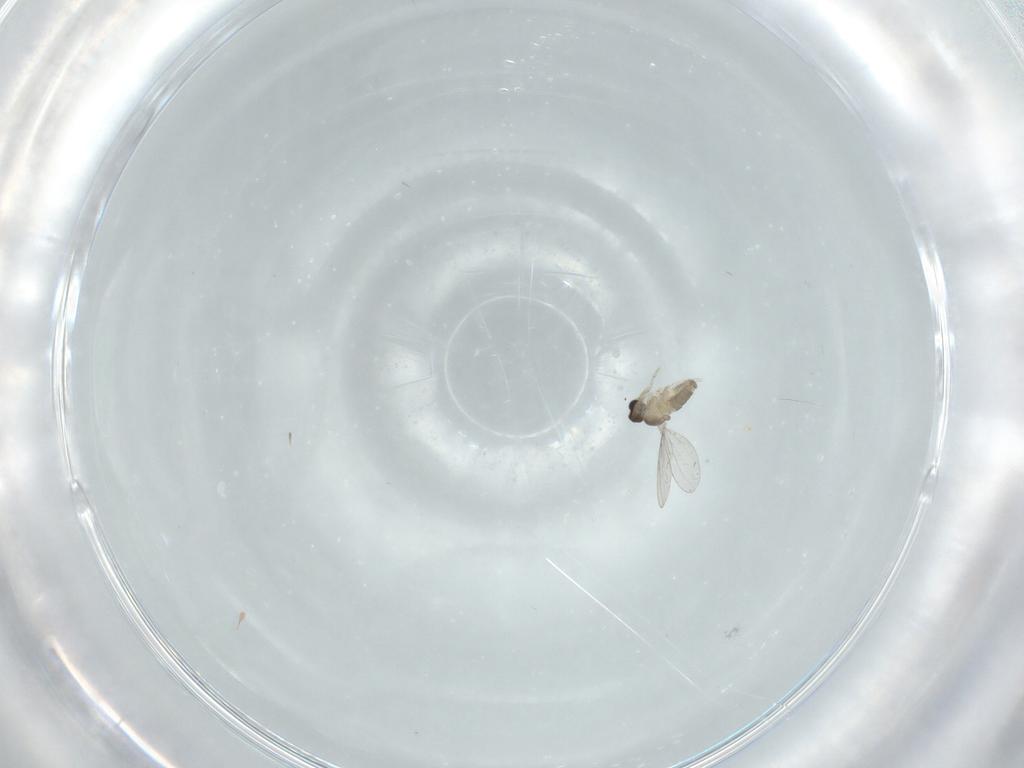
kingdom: Animalia
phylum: Arthropoda
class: Insecta
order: Diptera
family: Cecidomyiidae
